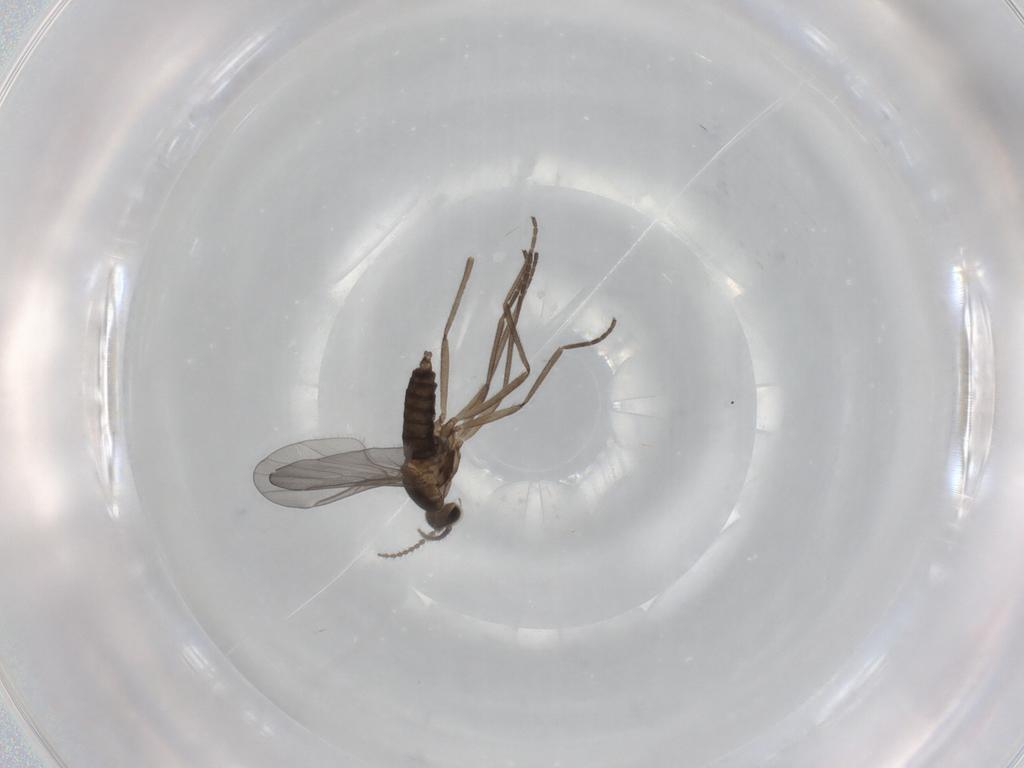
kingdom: Animalia
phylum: Arthropoda
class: Insecta
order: Diptera
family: Cecidomyiidae
